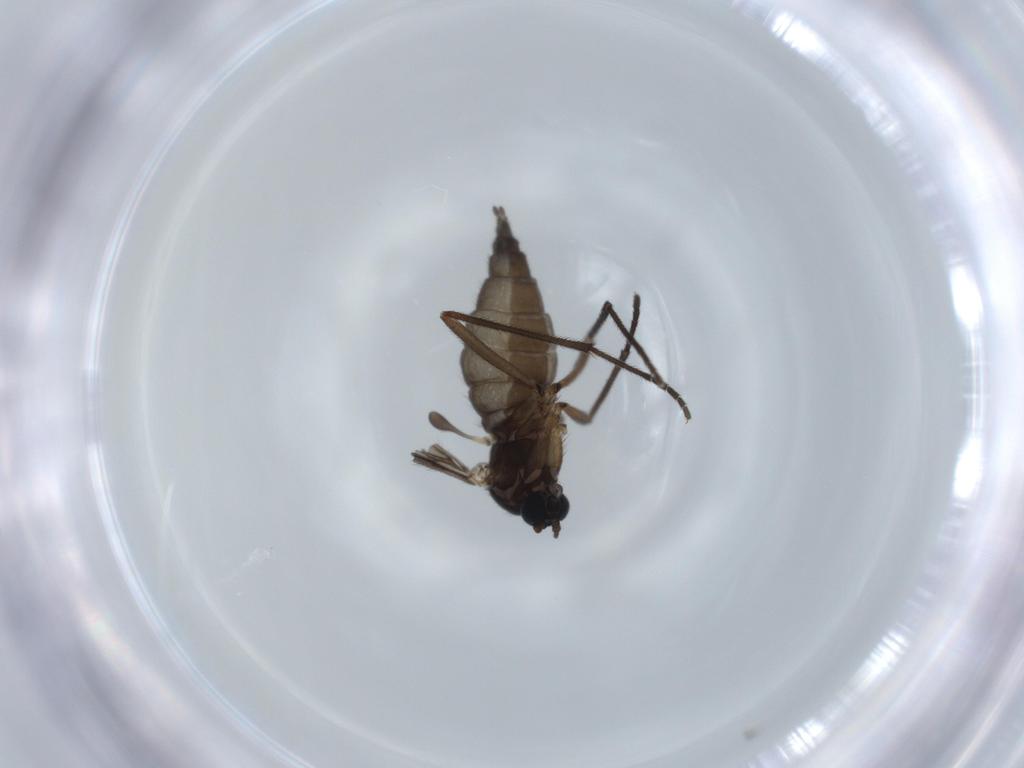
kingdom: Animalia
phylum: Arthropoda
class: Insecta
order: Diptera
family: Sciaridae
